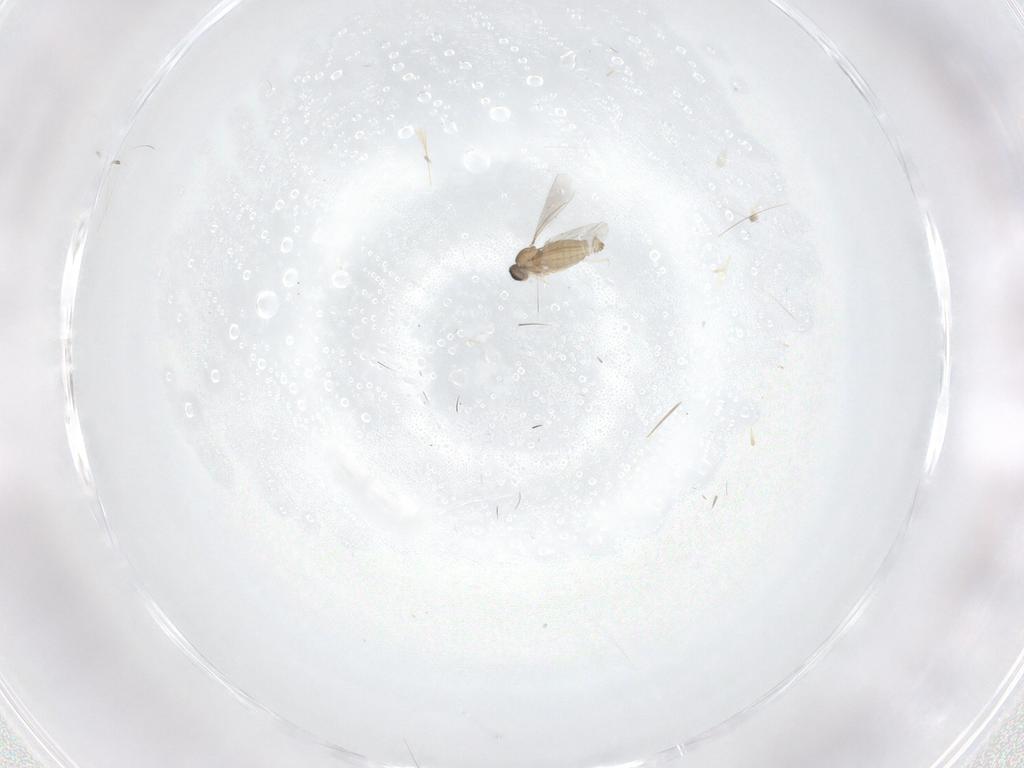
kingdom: Animalia
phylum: Arthropoda
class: Insecta
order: Diptera
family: Cecidomyiidae
